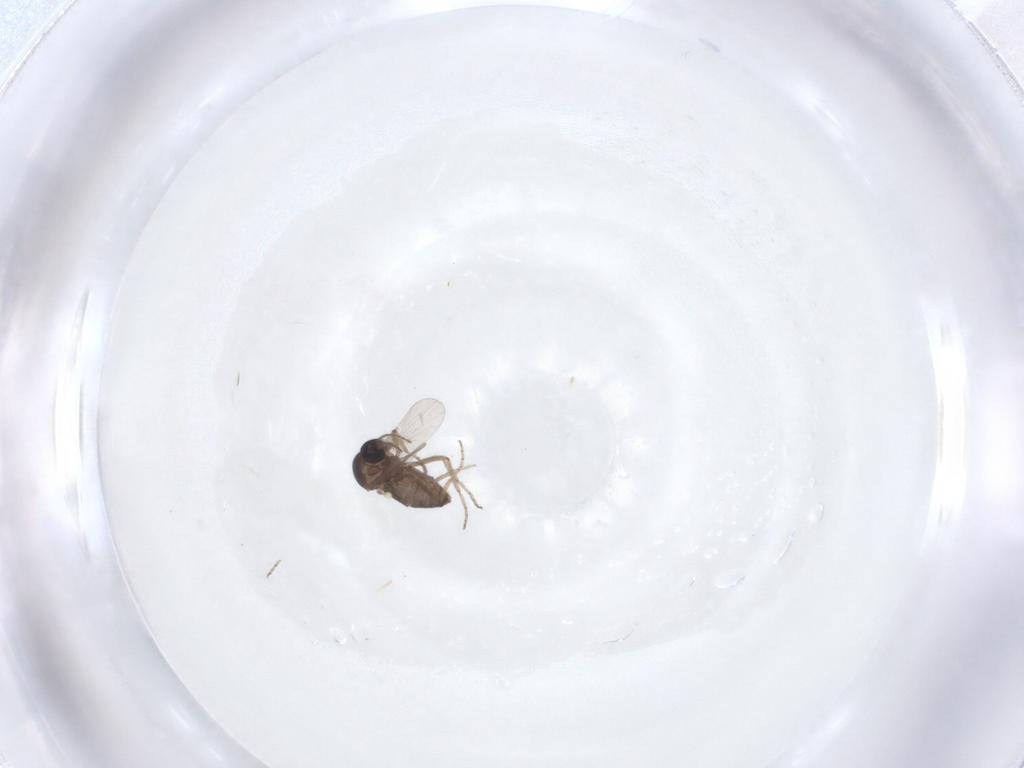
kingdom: Animalia
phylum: Arthropoda
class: Insecta
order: Diptera
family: Ceratopogonidae
